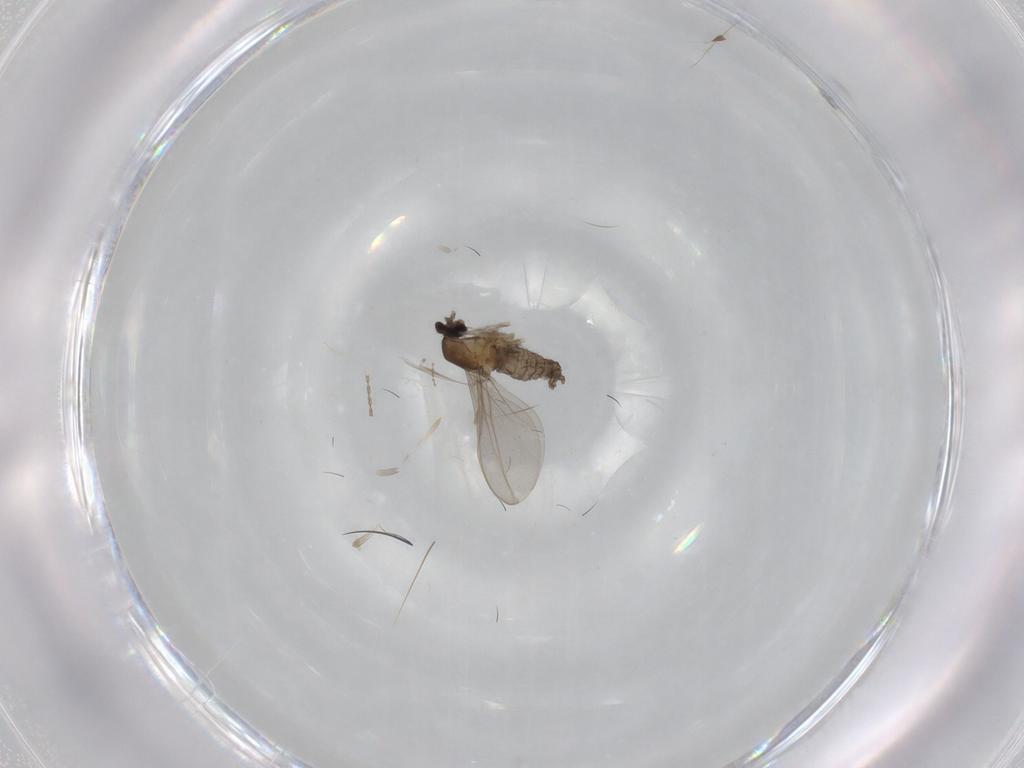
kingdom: Animalia
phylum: Arthropoda
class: Insecta
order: Diptera
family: Cecidomyiidae
